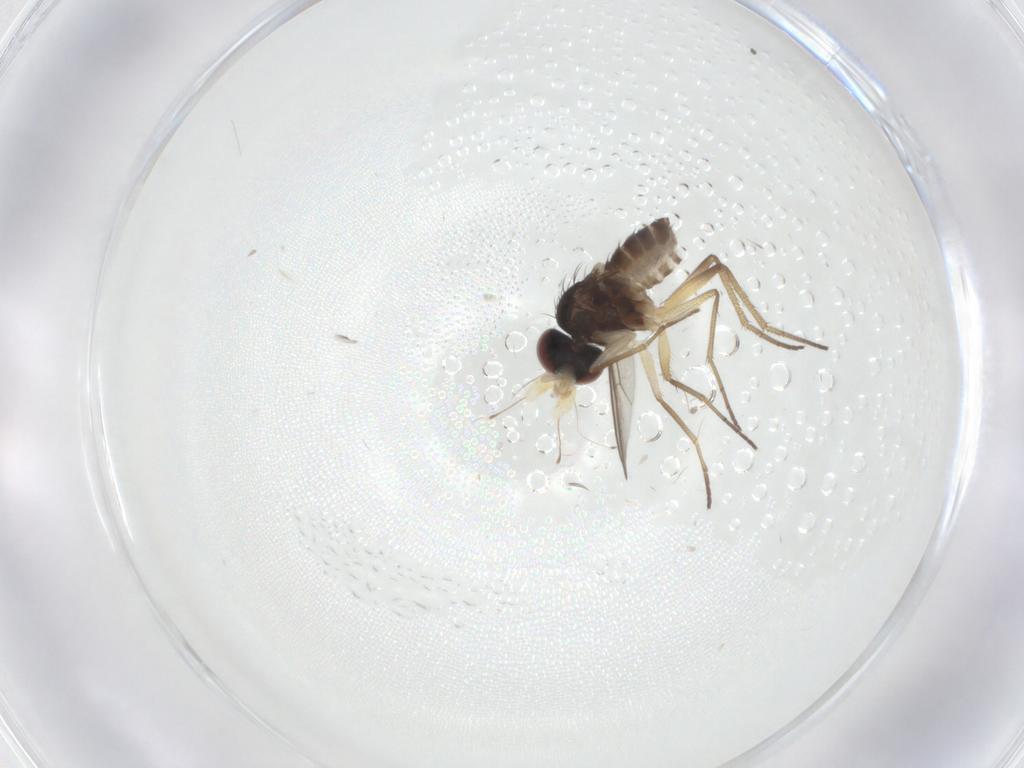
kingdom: Animalia
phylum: Arthropoda
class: Insecta
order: Diptera
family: Dolichopodidae
